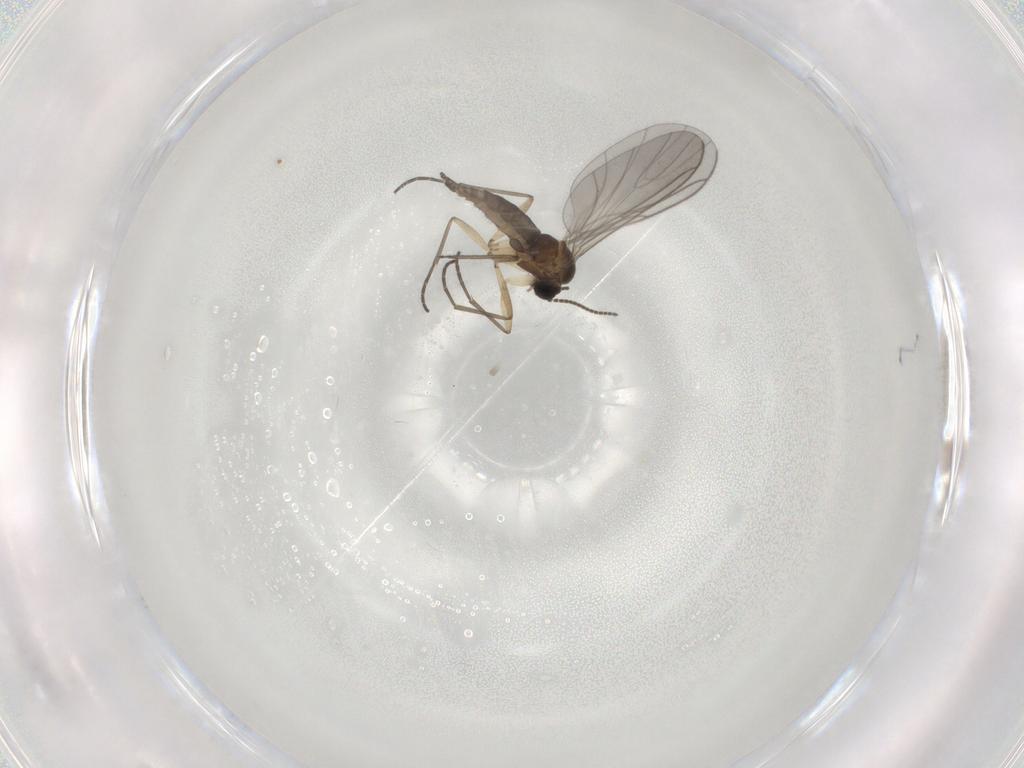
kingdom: Animalia
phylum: Arthropoda
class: Insecta
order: Diptera
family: Sciaridae
